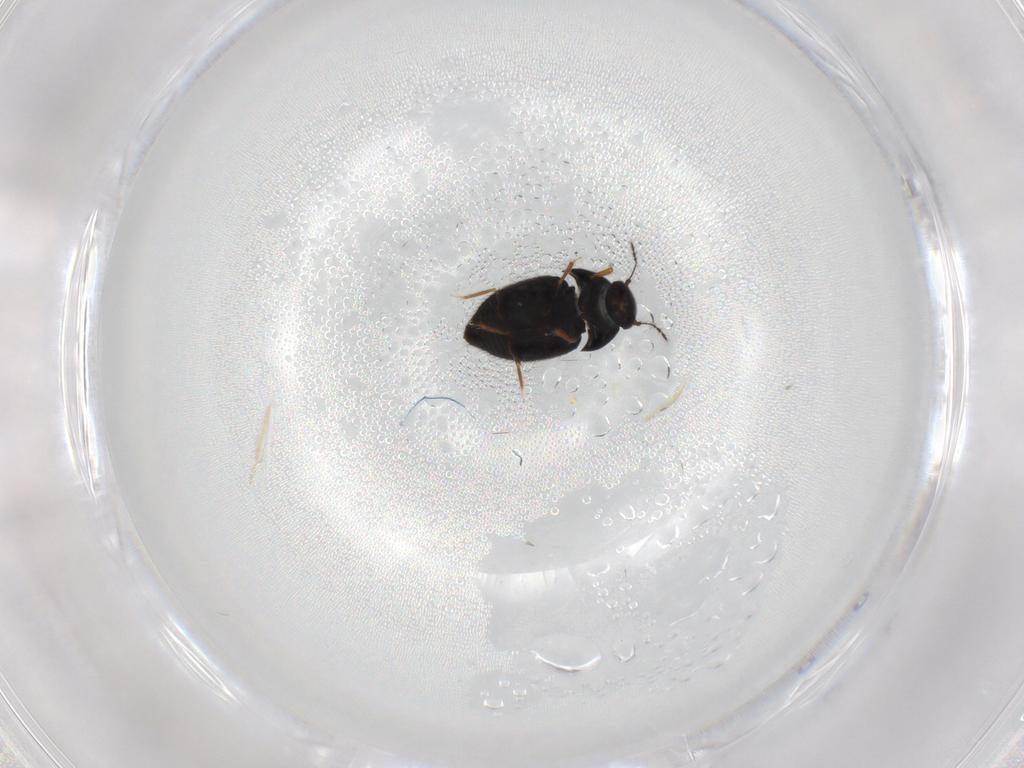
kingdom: Animalia
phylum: Arthropoda
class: Insecta
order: Coleoptera
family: Ptiliidae
